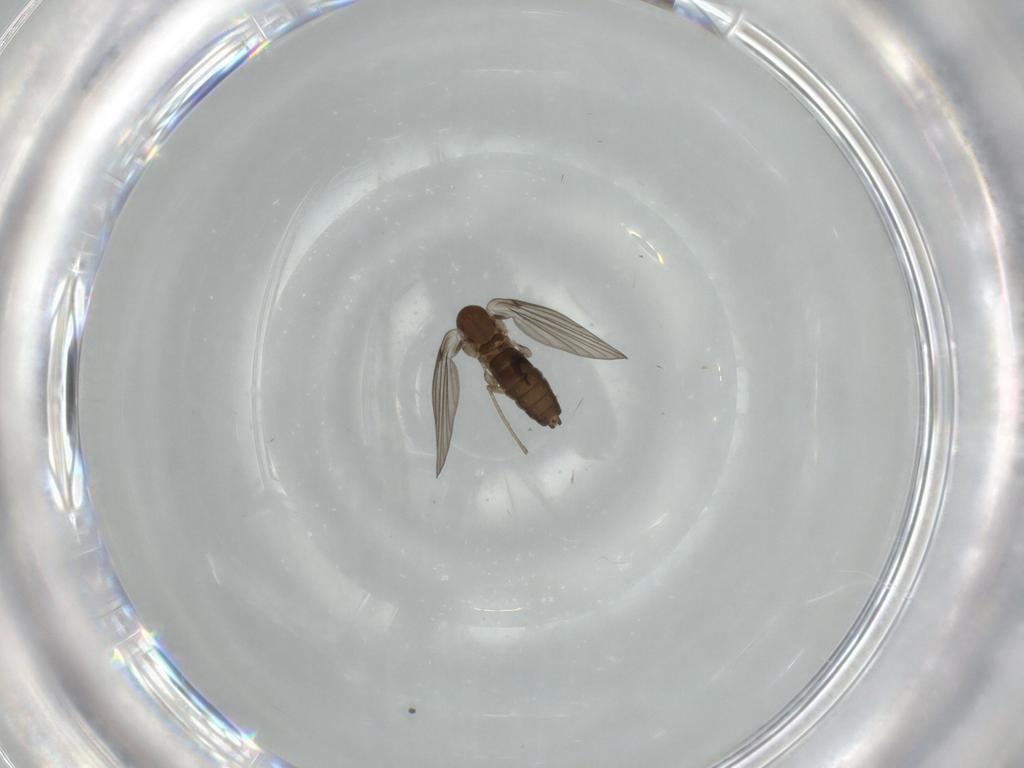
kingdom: Animalia
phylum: Arthropoda
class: Insecta
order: Diptera
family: Psychodidae
